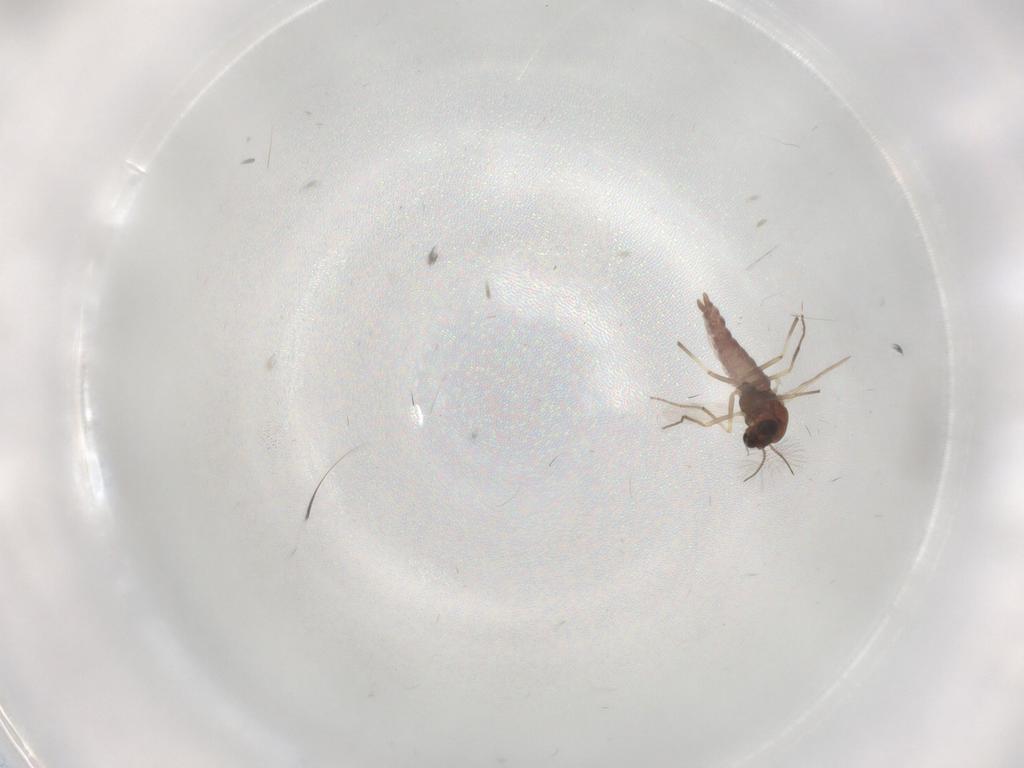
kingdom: Animalia
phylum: Arthropoda
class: Insecta
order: Diptera
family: Chironomidae
